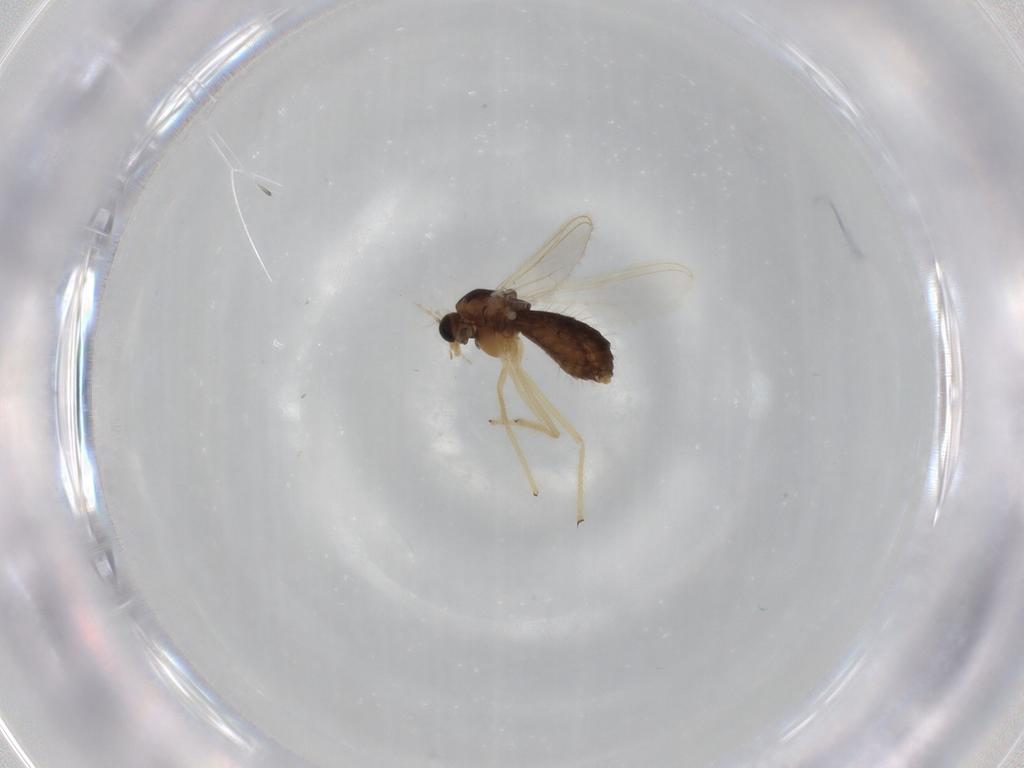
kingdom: Animalia
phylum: Arthropoda
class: Insecta
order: Diptera
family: Chironomidae
